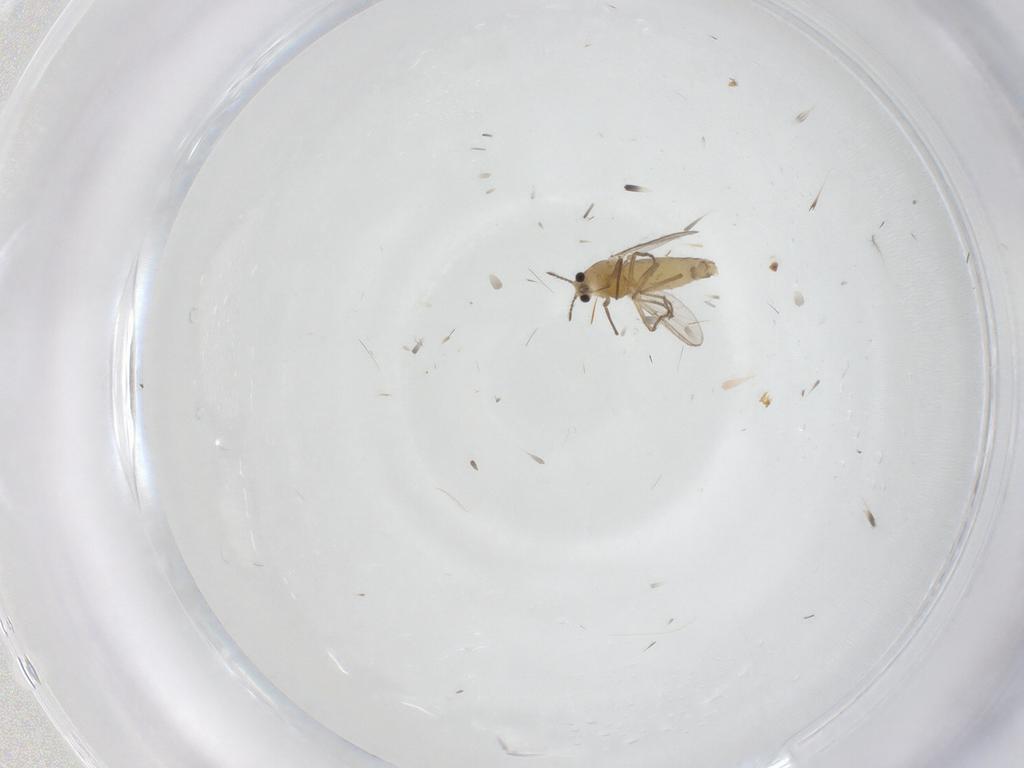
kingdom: Animalia
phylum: Arthropoda
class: Insecta
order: Diptera
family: Chironomidae
